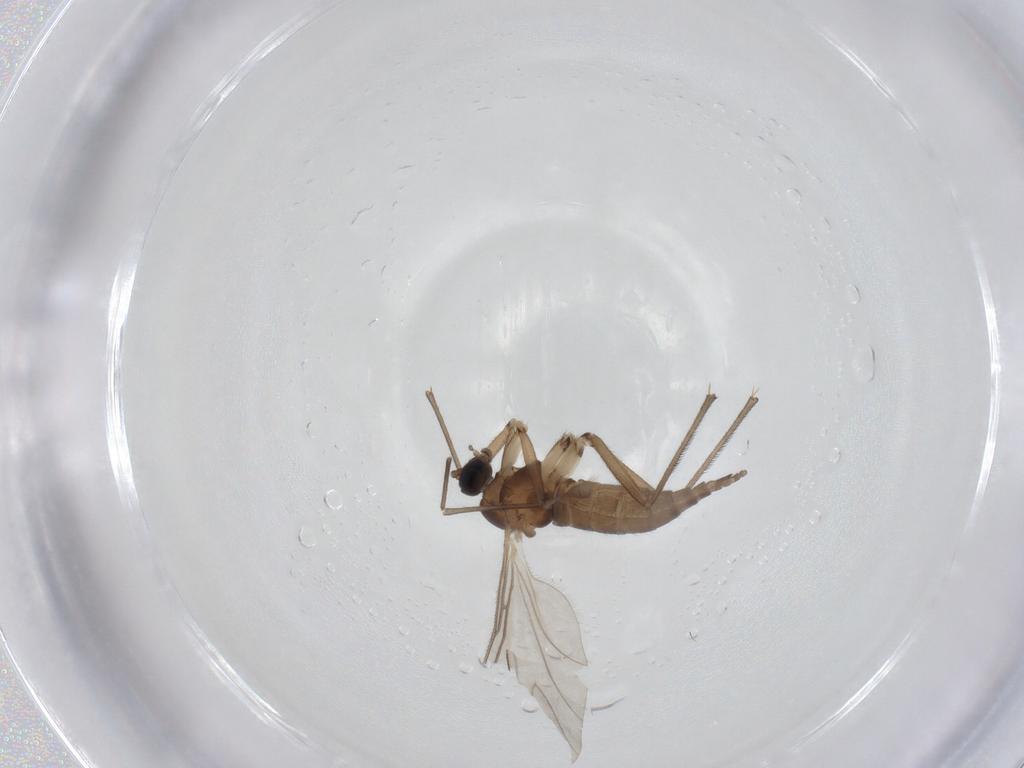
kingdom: Animalia
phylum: Arthropoda
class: Insecta
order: Diptera
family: Sciaridae
